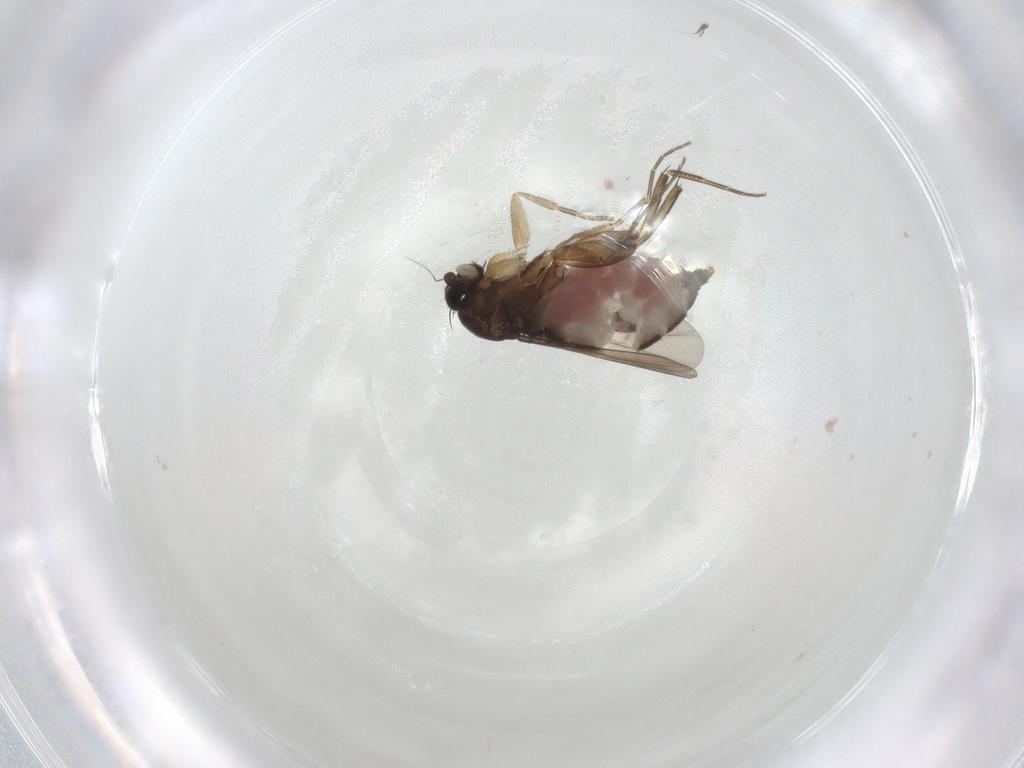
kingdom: Animalia
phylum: Arthropoda
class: Insecta
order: Diptera
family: Phoridae
